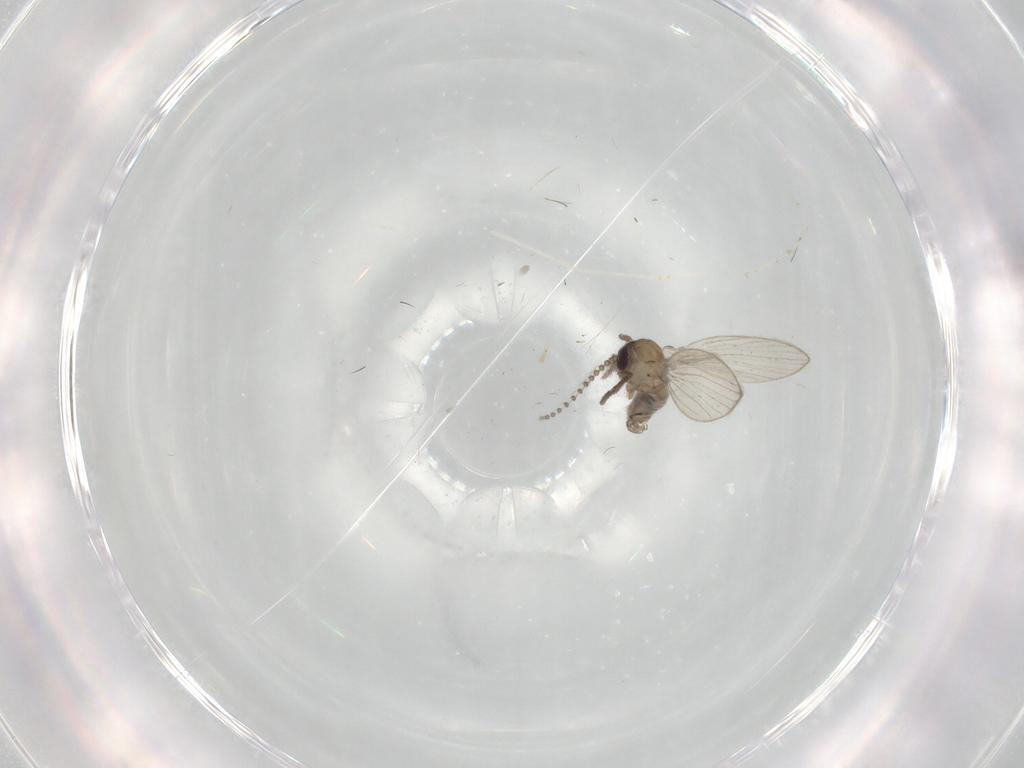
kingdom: Animalia
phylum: Arthropoda
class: Insecta
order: Diptera
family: Psychodidae
